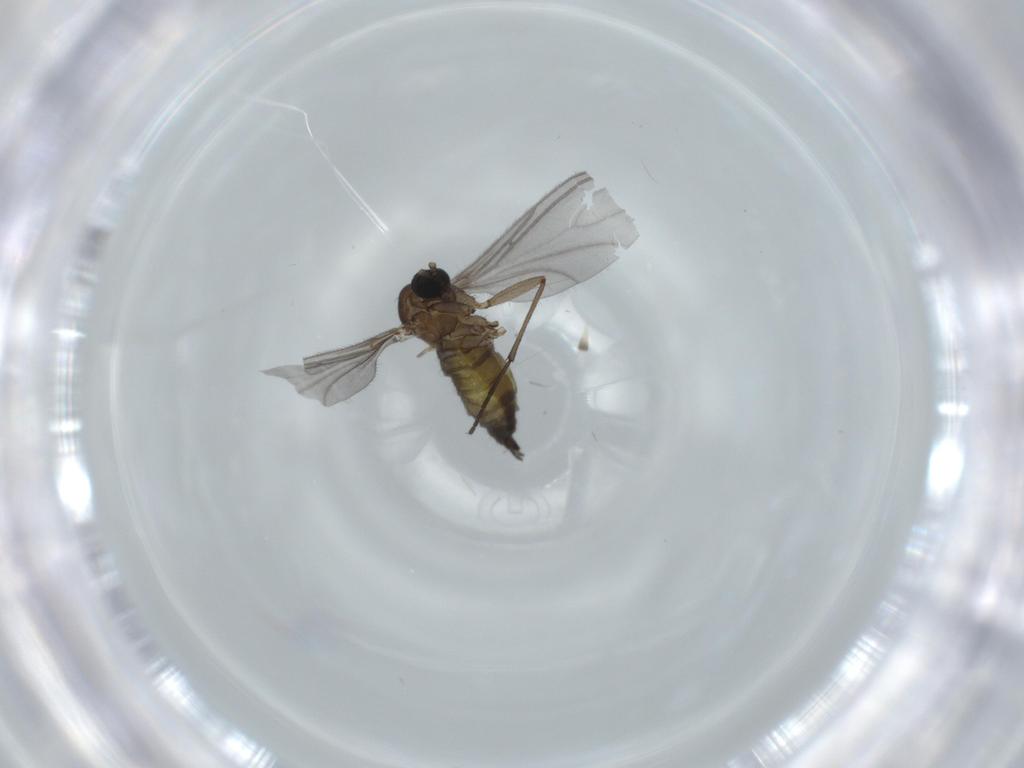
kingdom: Animalia
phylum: Arthropoda
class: Insecta
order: Diptera
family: Sciaridae
